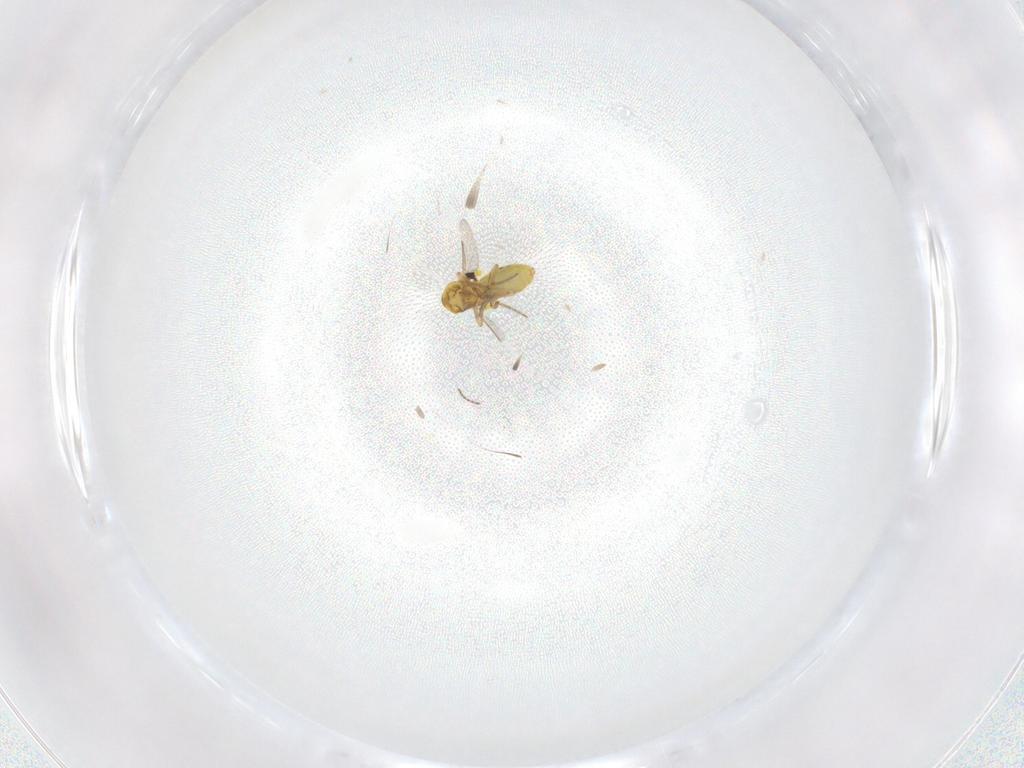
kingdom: Animalia
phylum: Arthropoda
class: Insecta
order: Diptera
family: Ceratopogonidae
